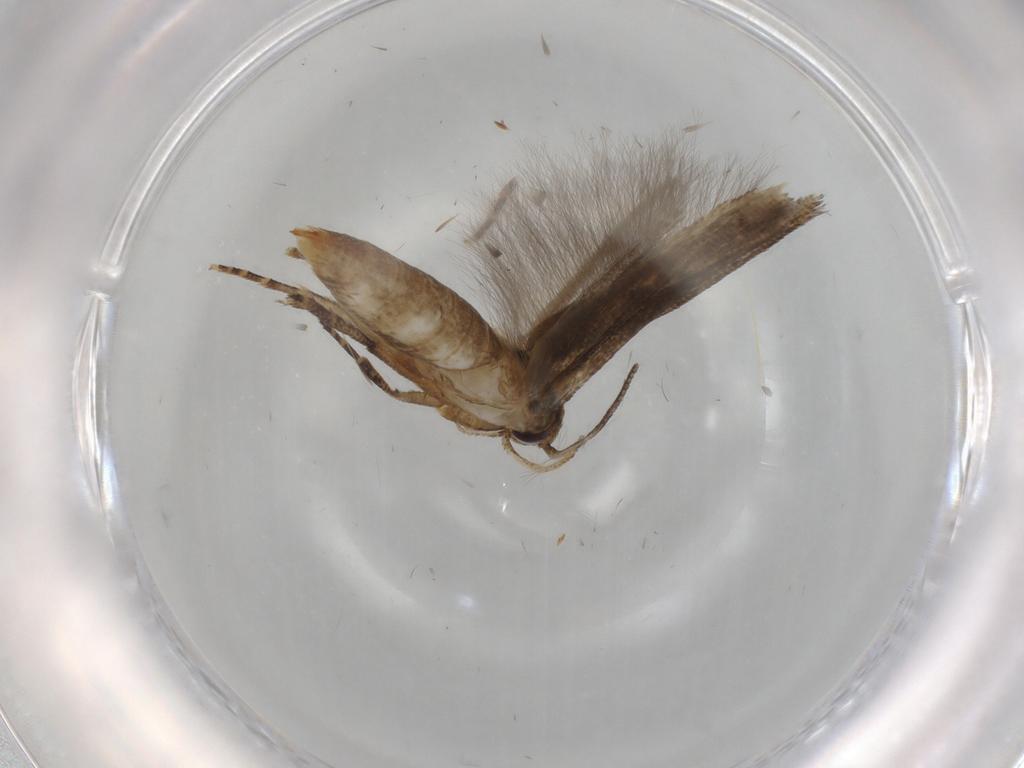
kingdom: Animalia
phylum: Arthropoda
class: Insecta
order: Lepidoptera
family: Cosmopterigidae
